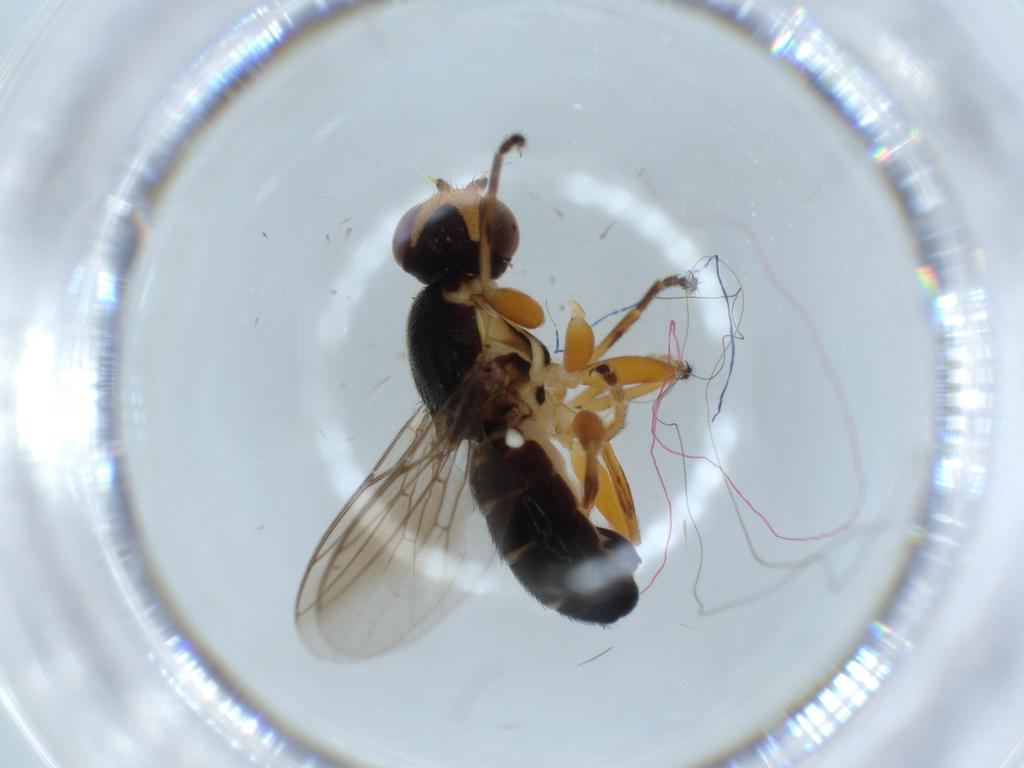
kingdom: Animalia
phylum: Arthropoda
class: Insecta
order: Diptera
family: Chloropidae
